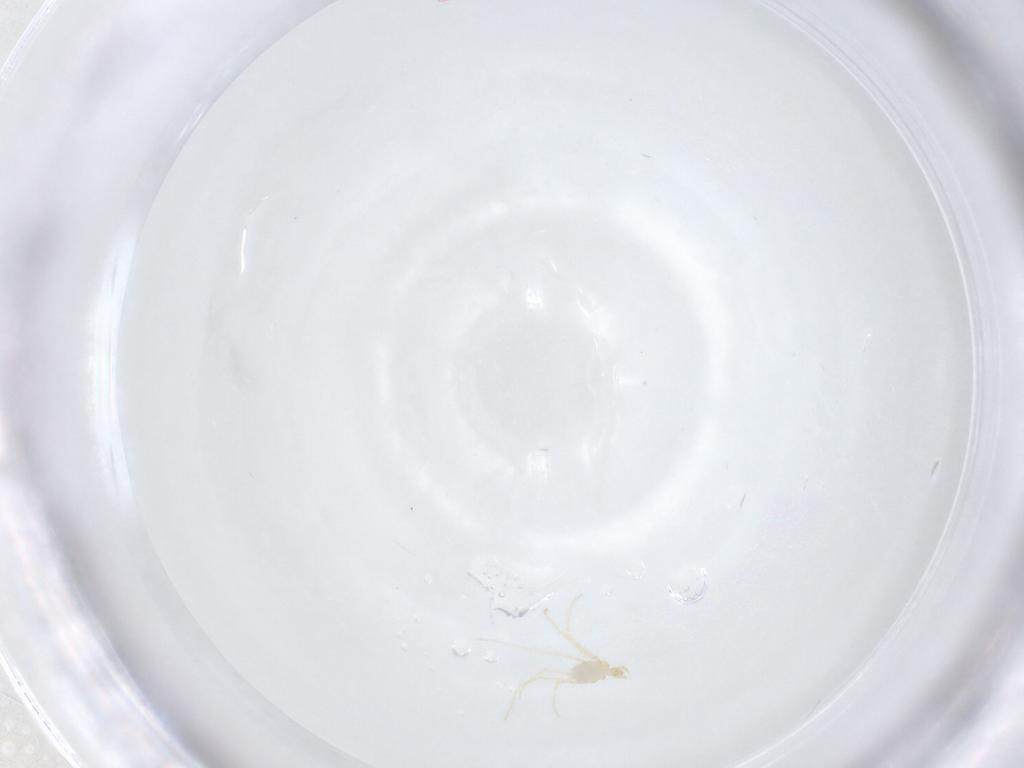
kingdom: Animalia
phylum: Arthropoda
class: Arachnida
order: Trombidiformes
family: Erythraeidae
